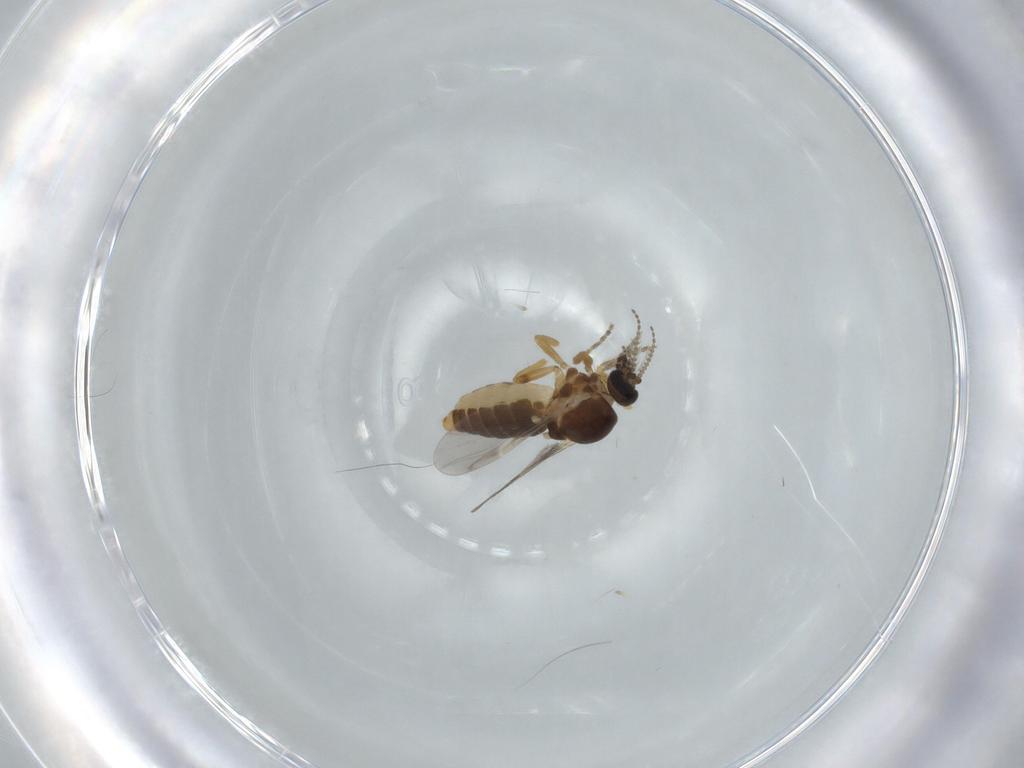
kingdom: Animalia
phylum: Arthropoda
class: Insecta
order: Diptera
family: Ceratopogonidae
